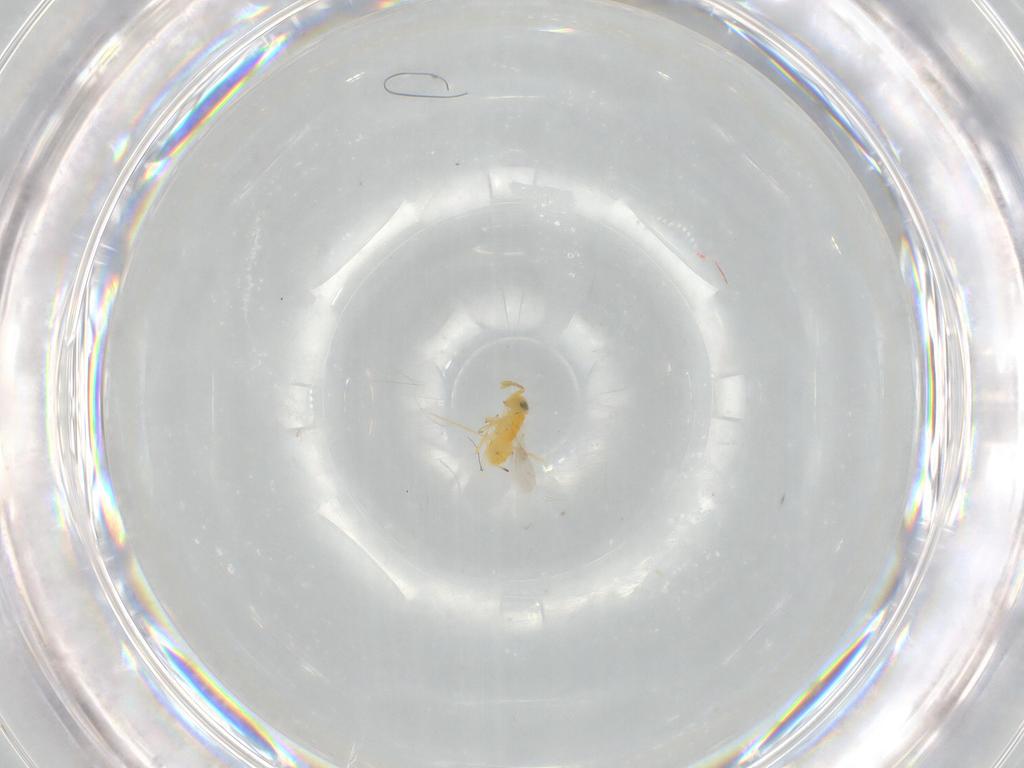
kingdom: Animalia
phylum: Arthropoda
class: Insecta
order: Hymenoptera
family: Encyrtidae
